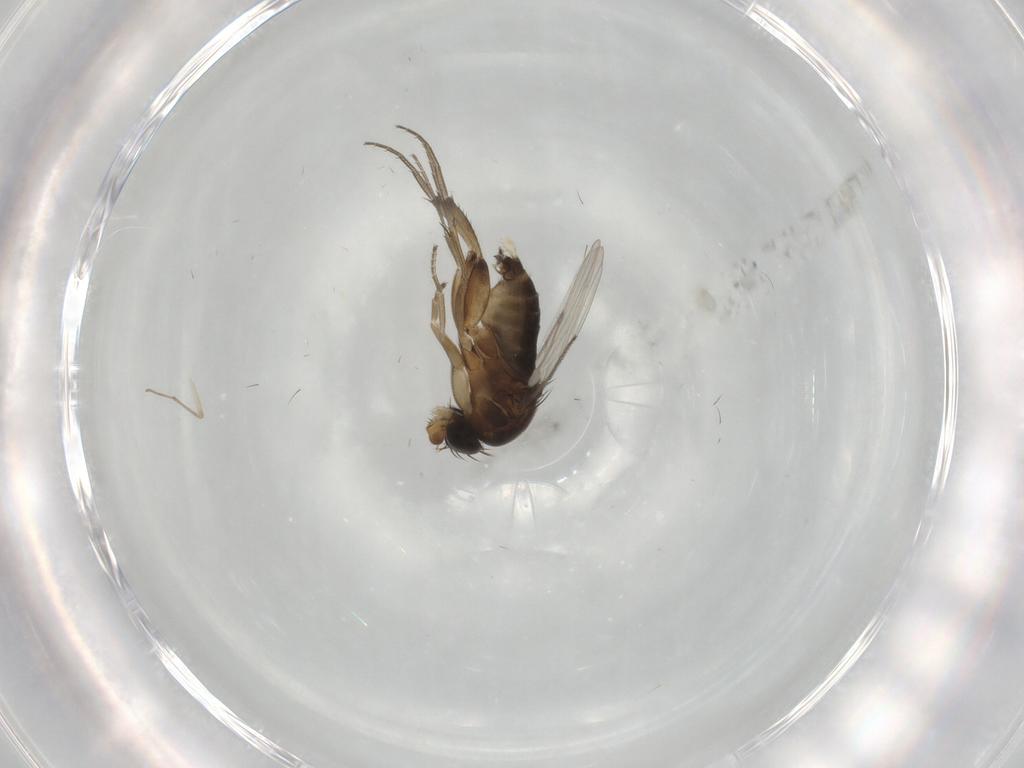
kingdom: Animalia
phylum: Arthropoda
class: Insecta
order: Diptera
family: Phoridae
